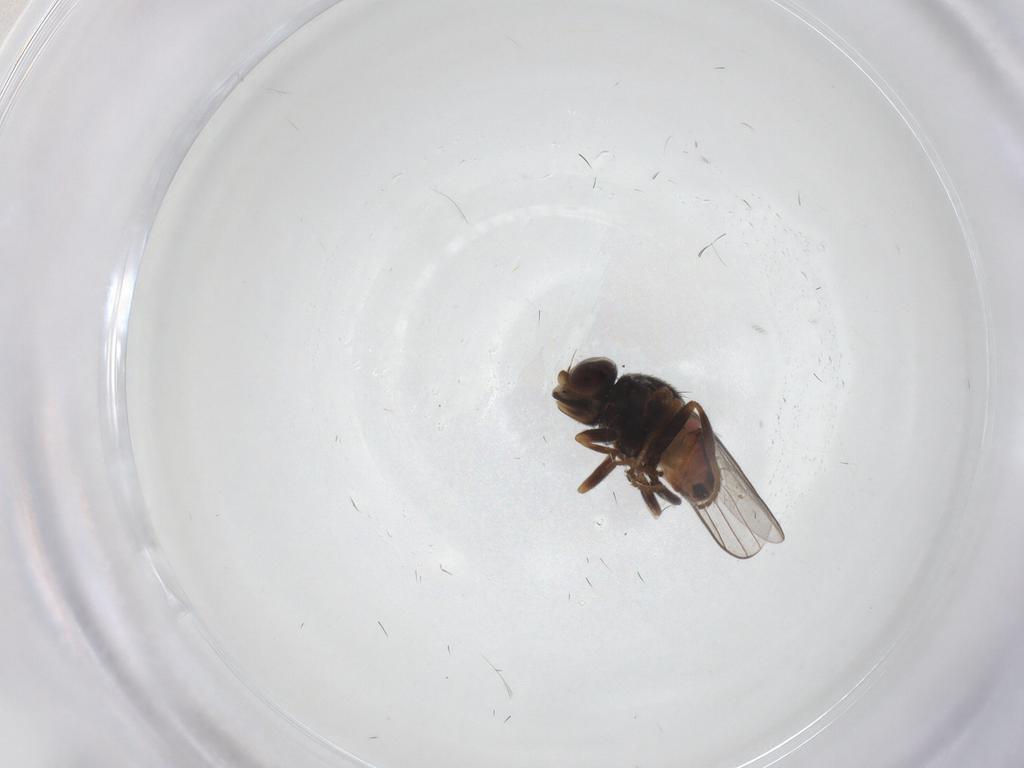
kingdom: Animalia
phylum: Arthropoda
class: Insecta
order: Diptera
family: Chloropidae
